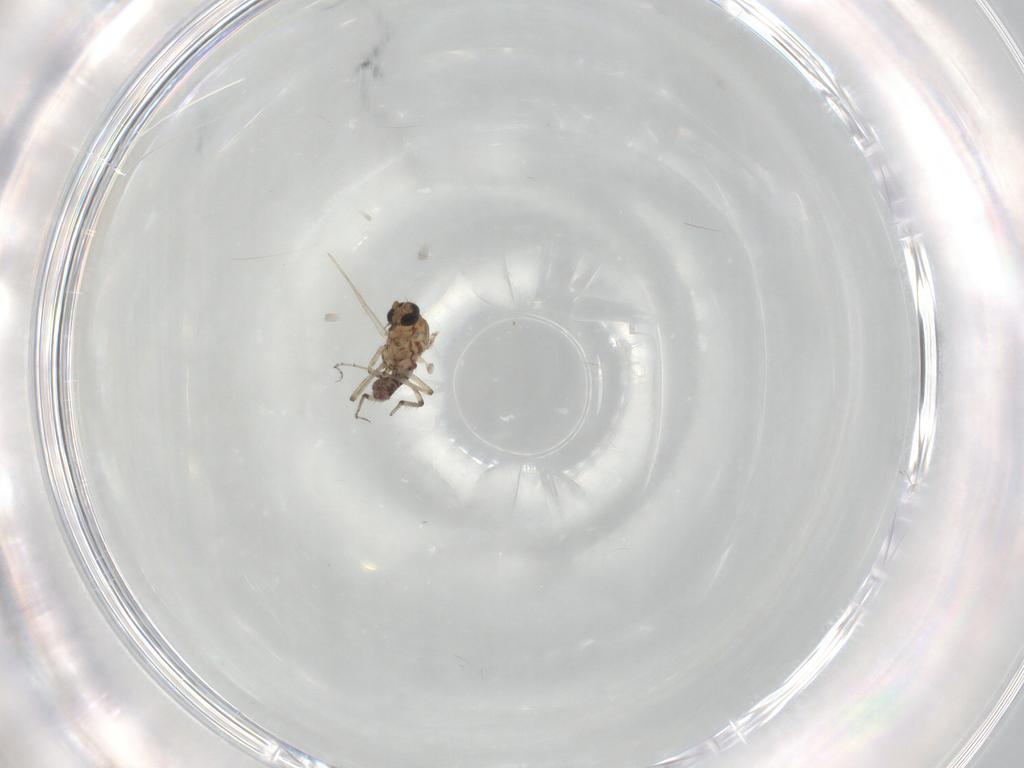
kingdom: Animalia
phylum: Arthropoda
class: Insecta
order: Diptera
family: Ceratopogonidae
